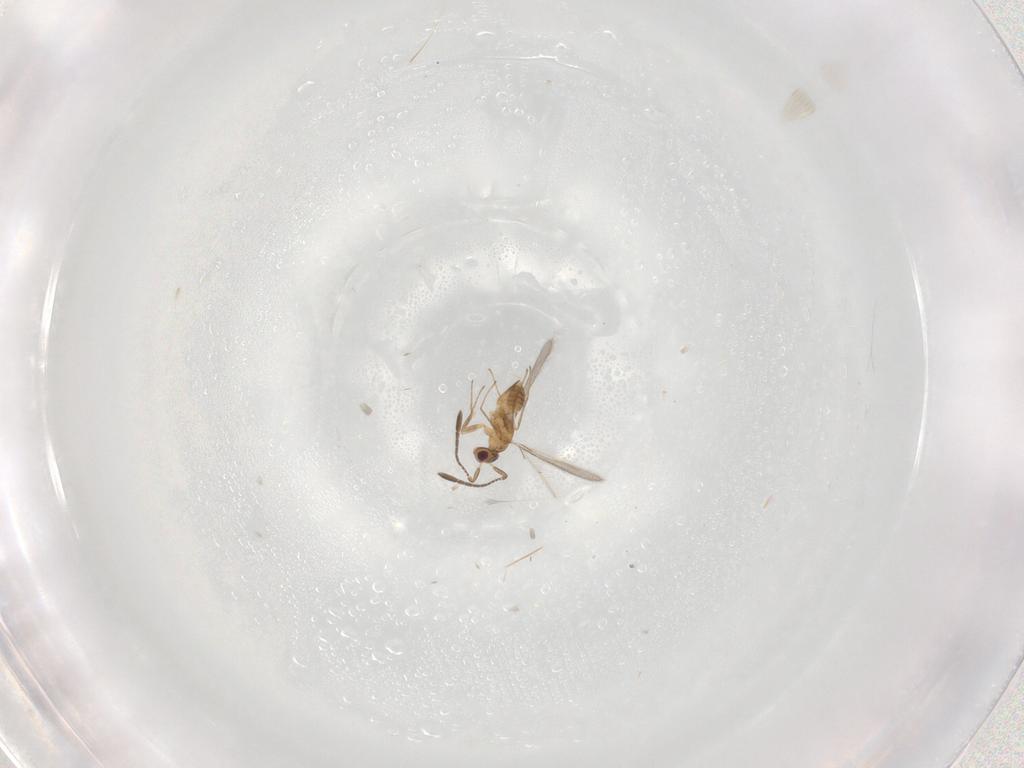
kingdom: Animalia
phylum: Arthropoda
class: Insecta
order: Hymenoptera
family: Mymaridae
